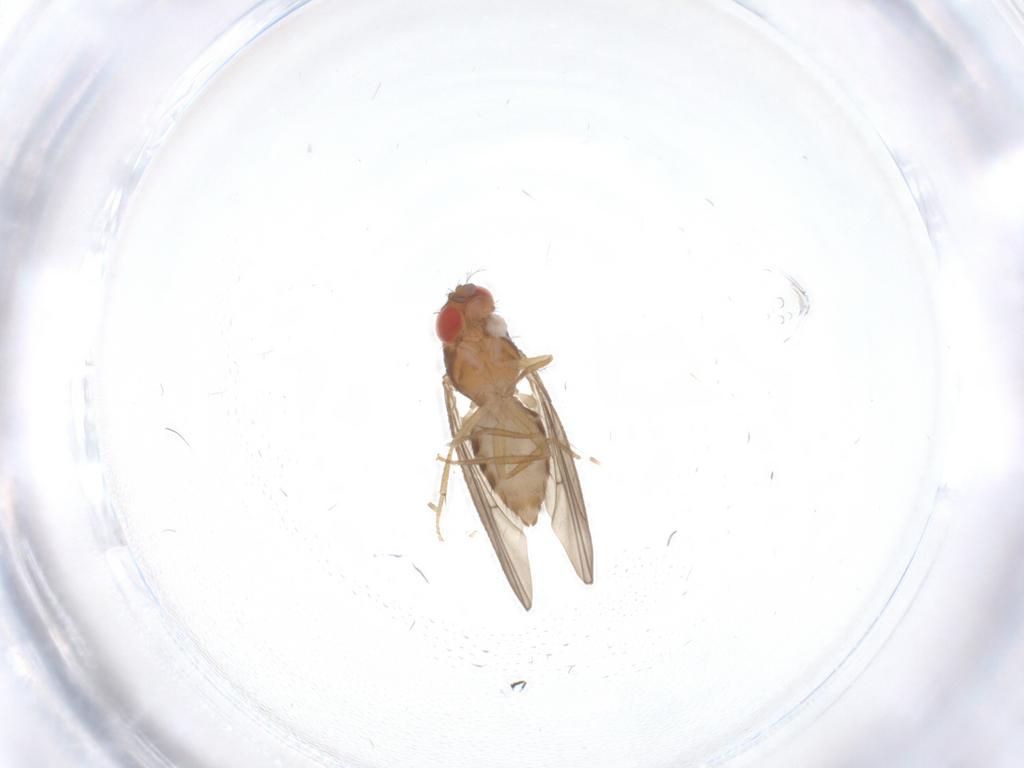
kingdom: Animalia
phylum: Arthropoda
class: Insecta
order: Diptera
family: Drosophilidae
